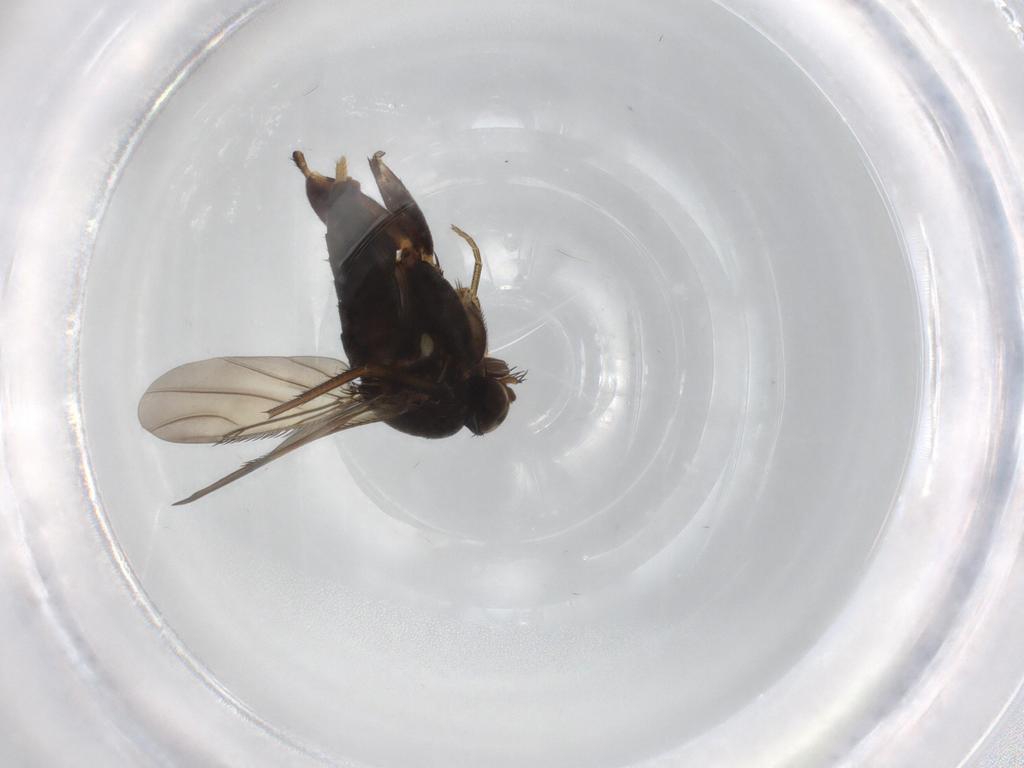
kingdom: Animalia
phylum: Arthropoda
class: Insecta
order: Diptera
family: Phoridae
